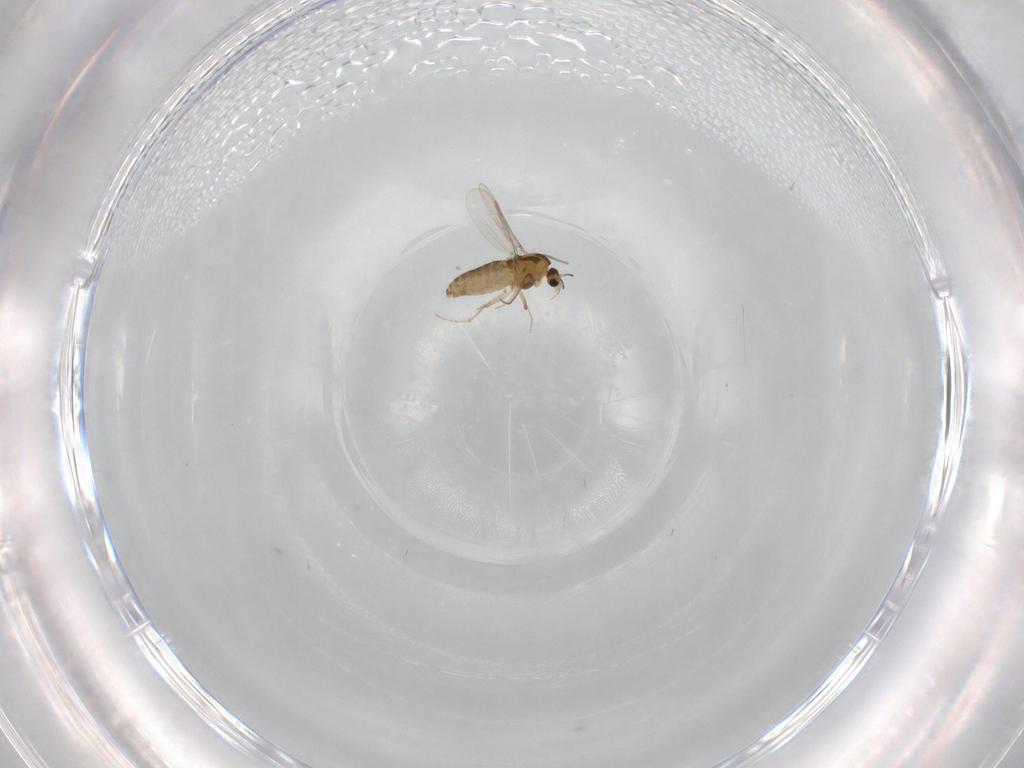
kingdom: Animalia
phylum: Arthropoda
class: Insecta
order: Diptera
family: Chironomidae
